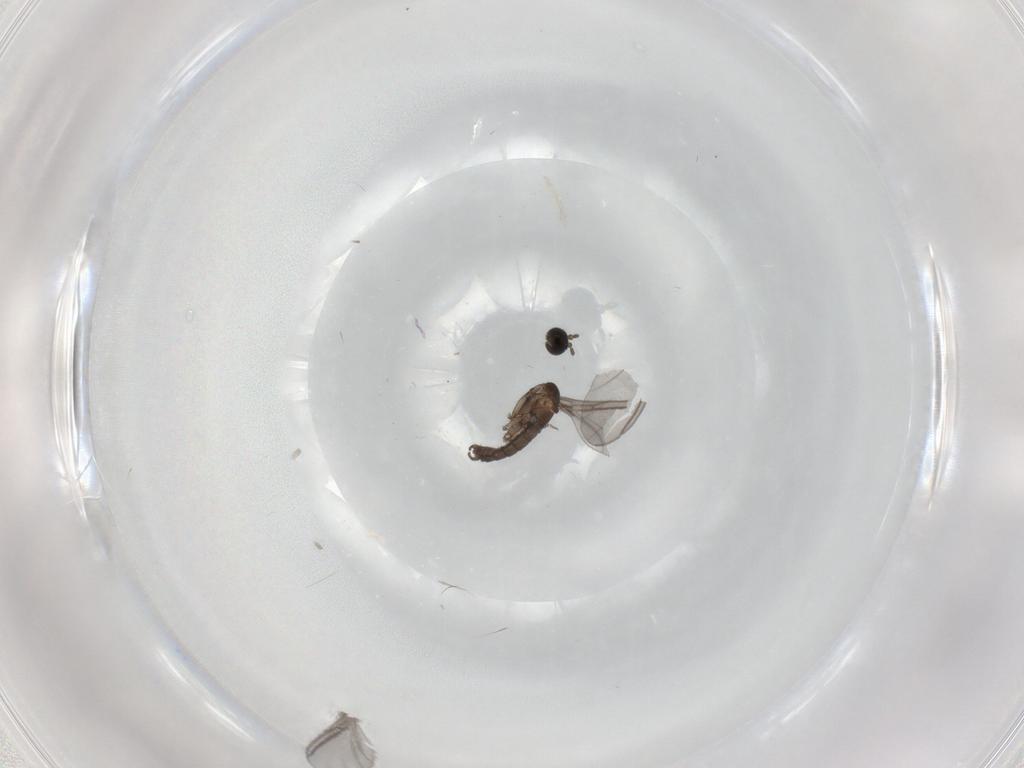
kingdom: Animalia
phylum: Arthropoda
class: Insecta
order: Diptera
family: Sciaridae
